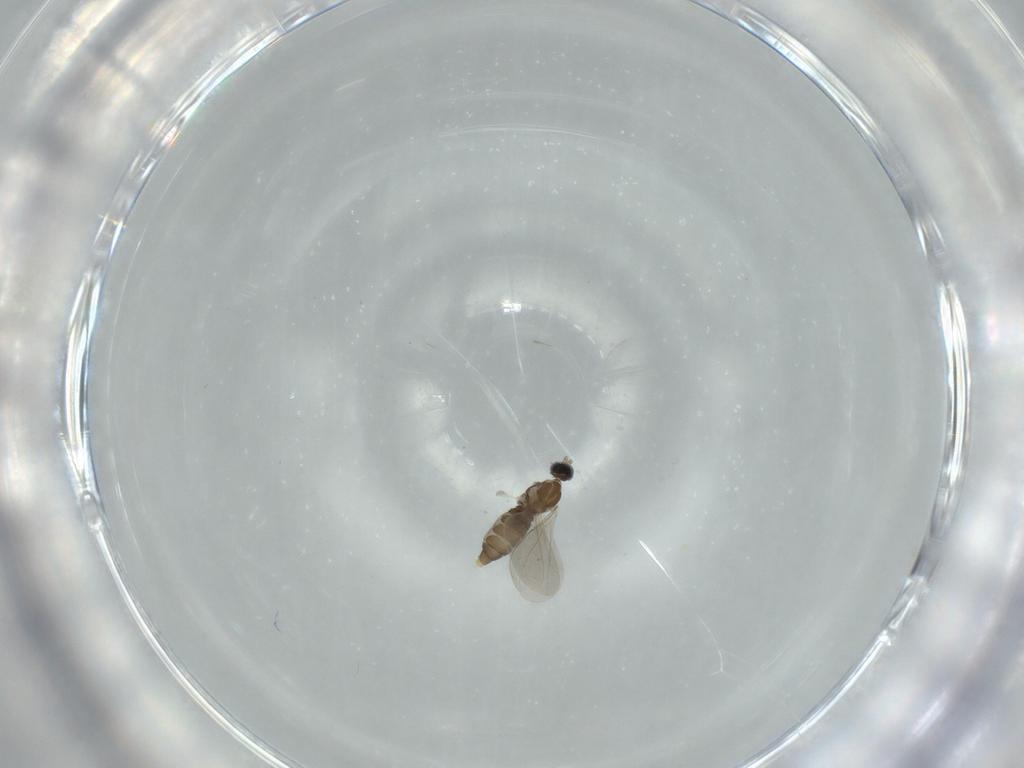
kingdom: Animalia
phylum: Arthropoda
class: Insecta
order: Diptera
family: Cecidomyiidae
